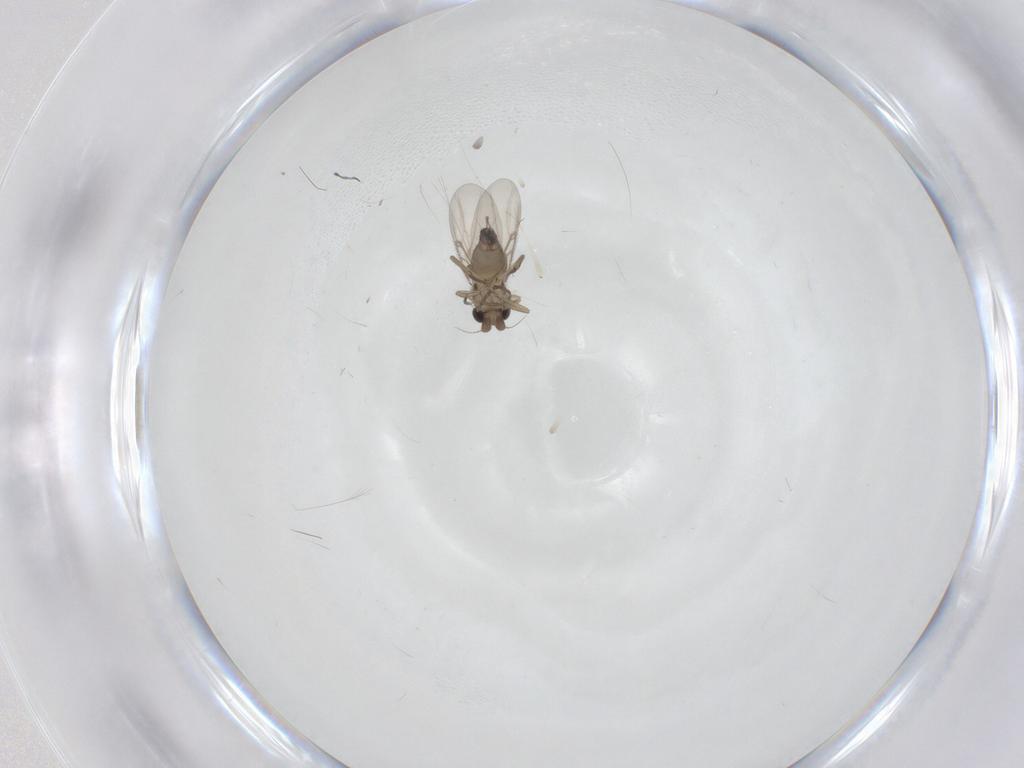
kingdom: Animalia
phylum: Arthropoda
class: Insecta
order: Diptera
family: Cecidomyiidae
